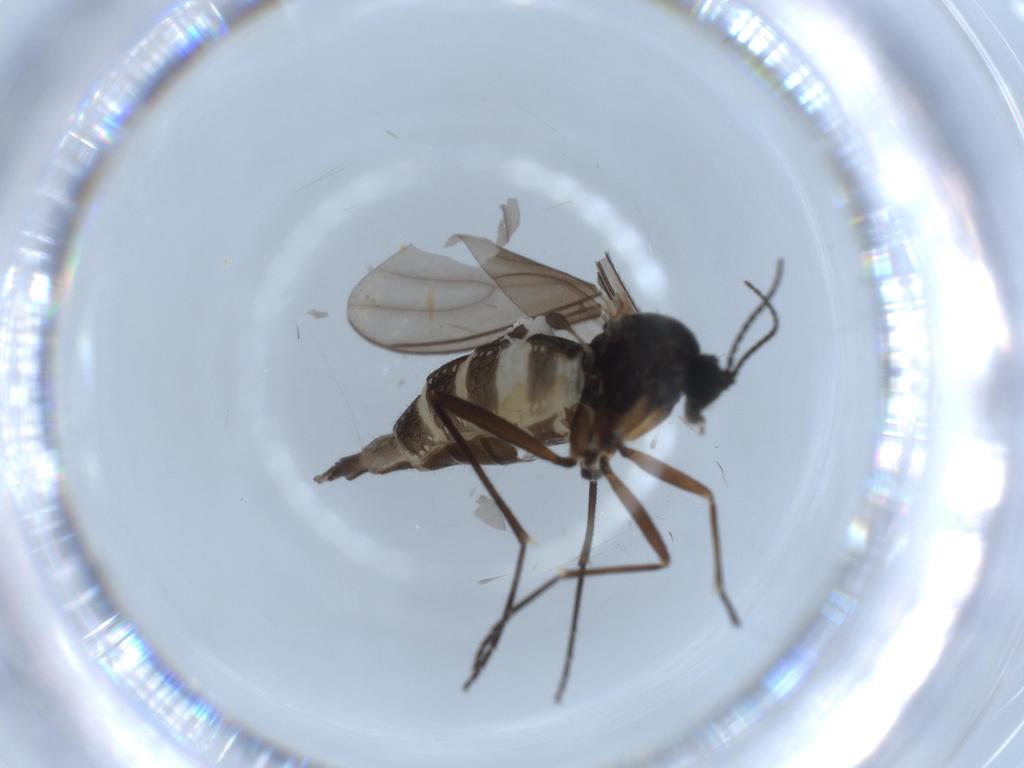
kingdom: Animalia
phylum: Arthropoda
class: Insecta
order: Diptera
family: Sciaridae
